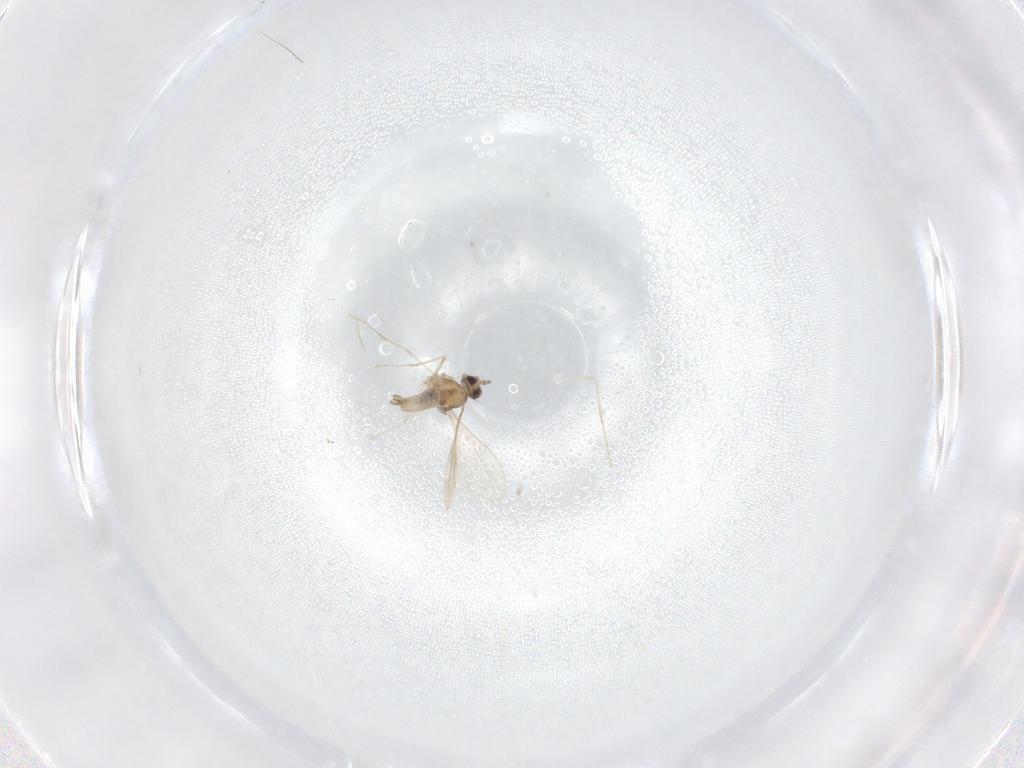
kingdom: Animalia
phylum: Arthropoda
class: Insecta
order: Diptera
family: Cecidomyiidae
